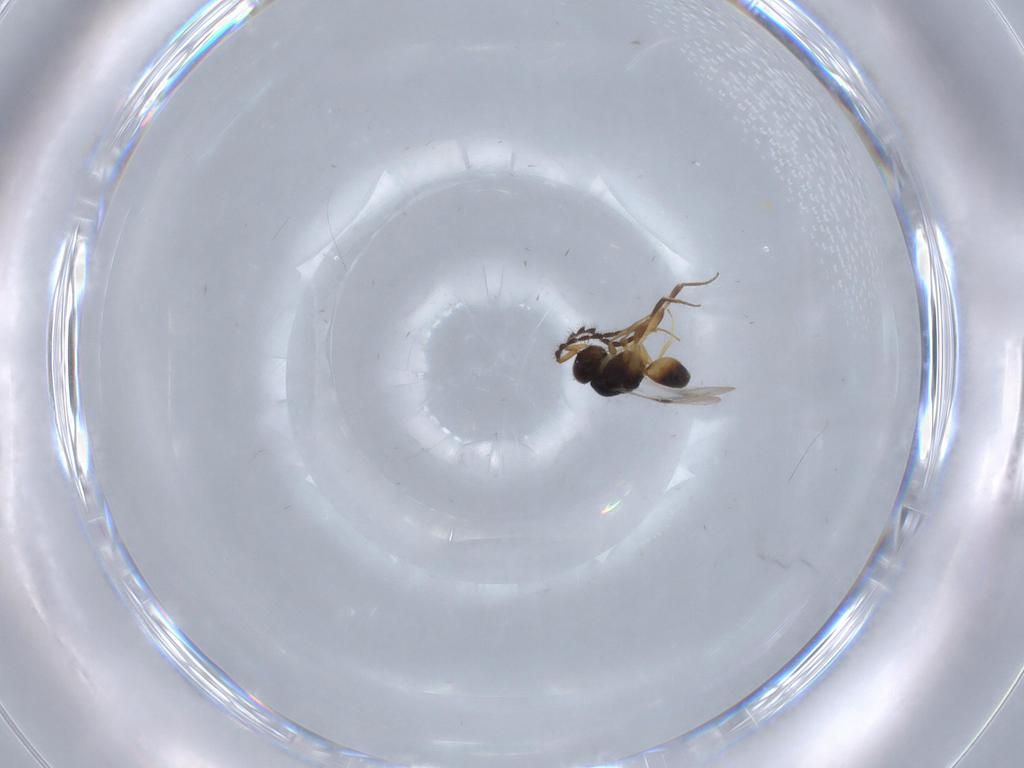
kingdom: Animalia
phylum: Arthropoda
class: Insecta
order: Hymenoptera
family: Megaspilidae
